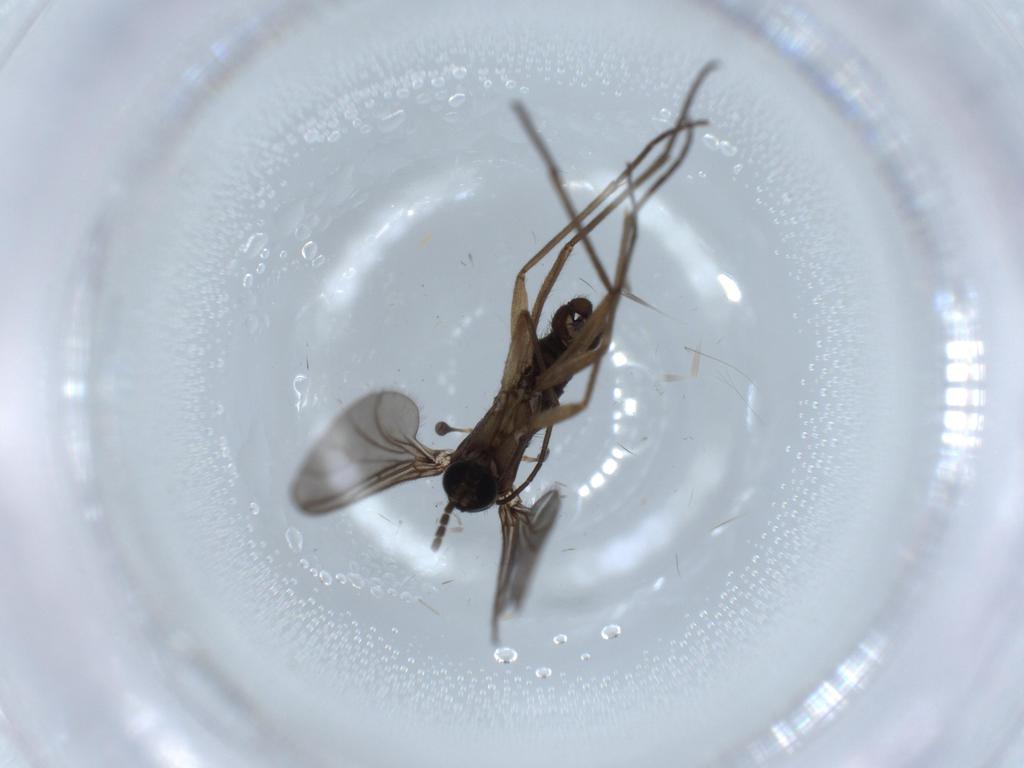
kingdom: Animalia
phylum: Arthropoda
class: Insecta
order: Diptera
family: Sciaridae
